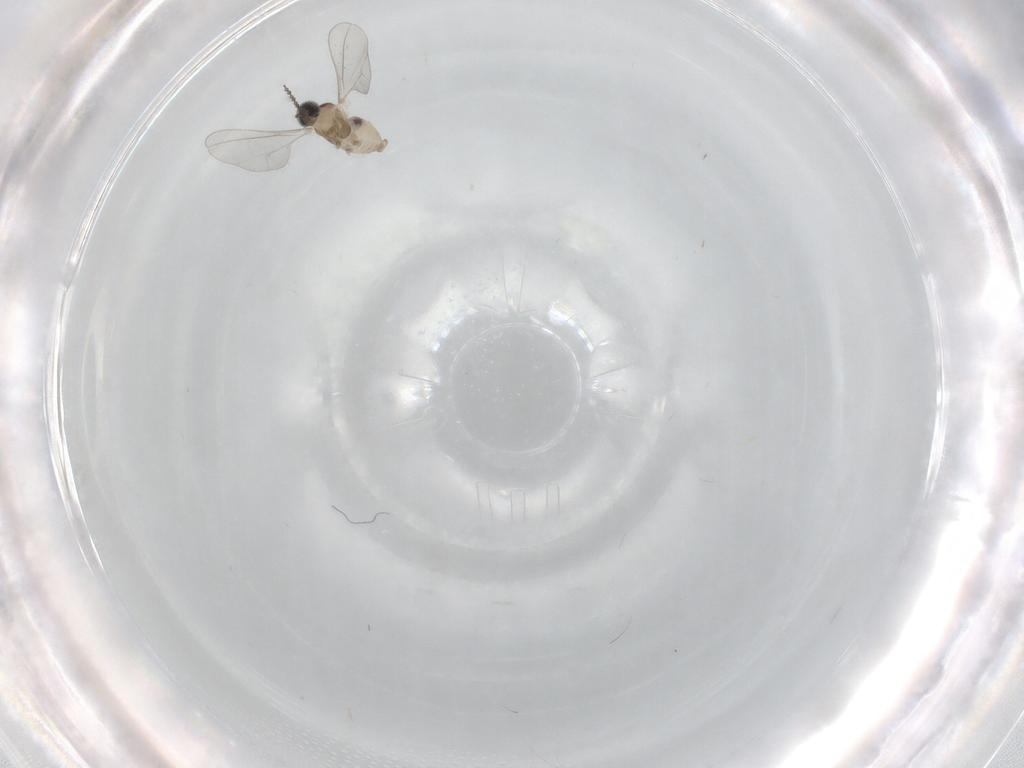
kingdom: Animalia
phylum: Arthropoda
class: Insecta
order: Diptera
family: Cecidomyiidae
